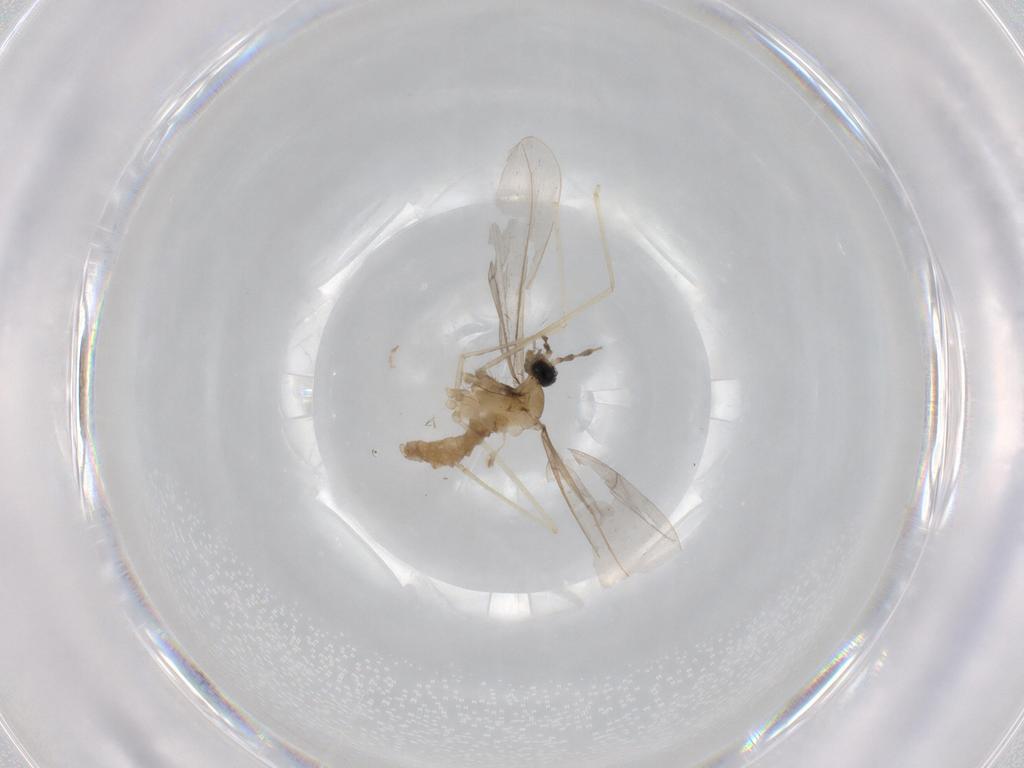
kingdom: Animalia
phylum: Arthropoda
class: Insecta
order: Diptera
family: Cecidomyiidae
